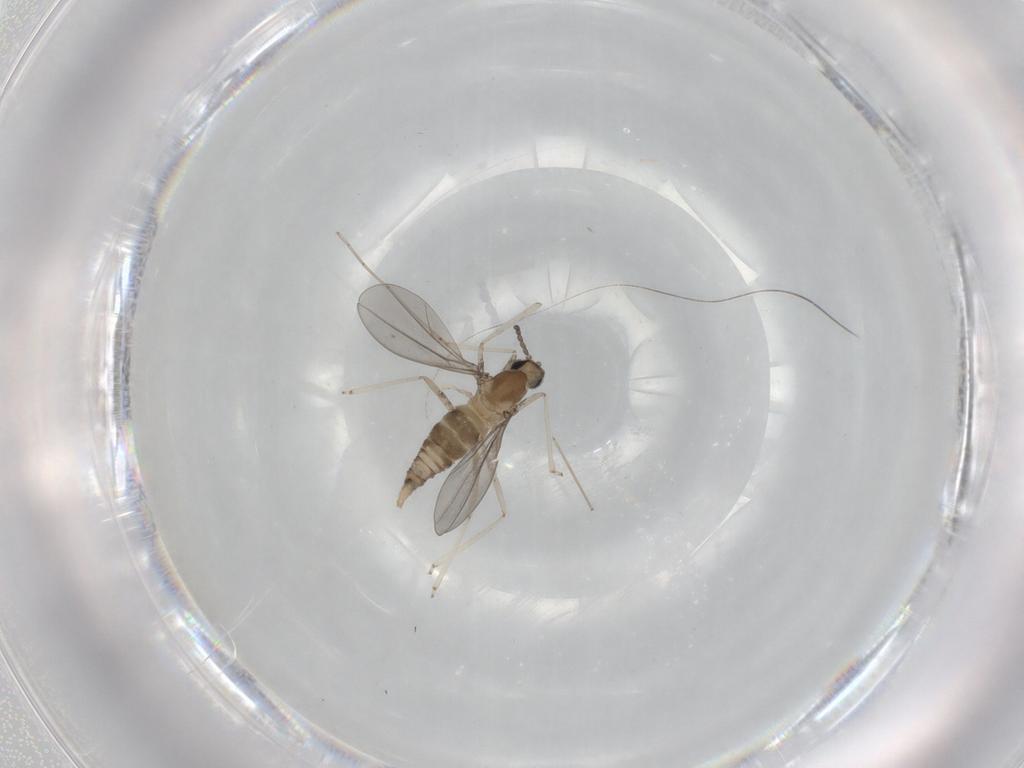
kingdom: Animalia
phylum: Arthropoda
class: Insecta
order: Diptera
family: Cecidomyiidae
